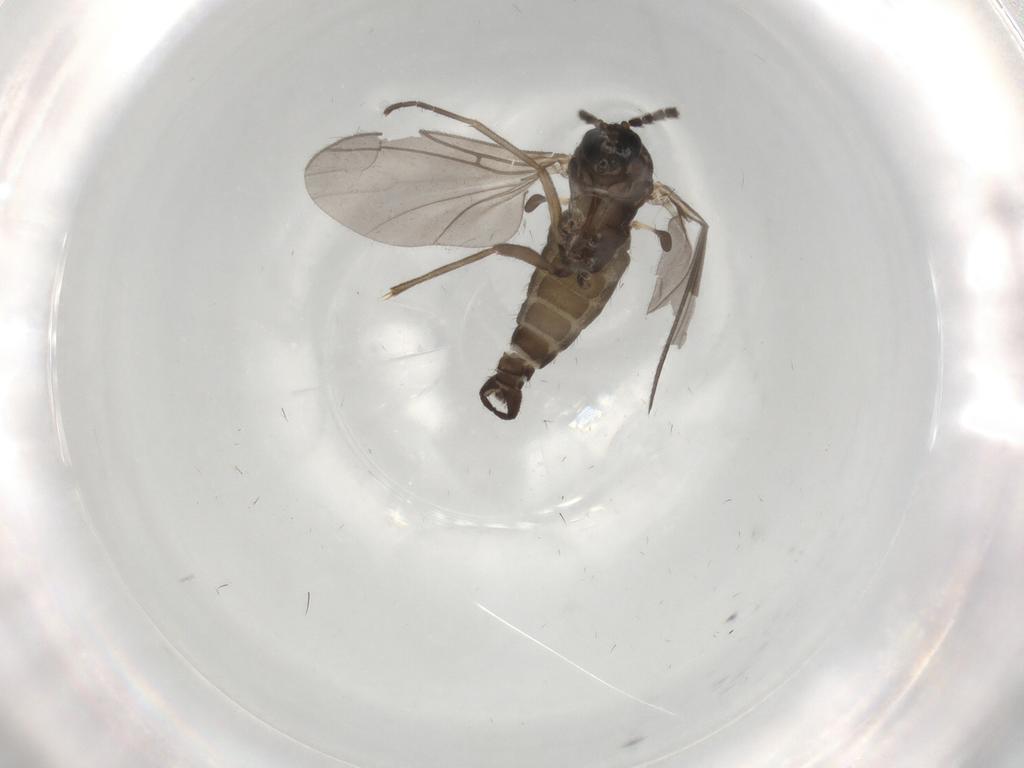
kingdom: Animalia
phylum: Arthropoda
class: Insecta
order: Diptera
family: Sciaridae
